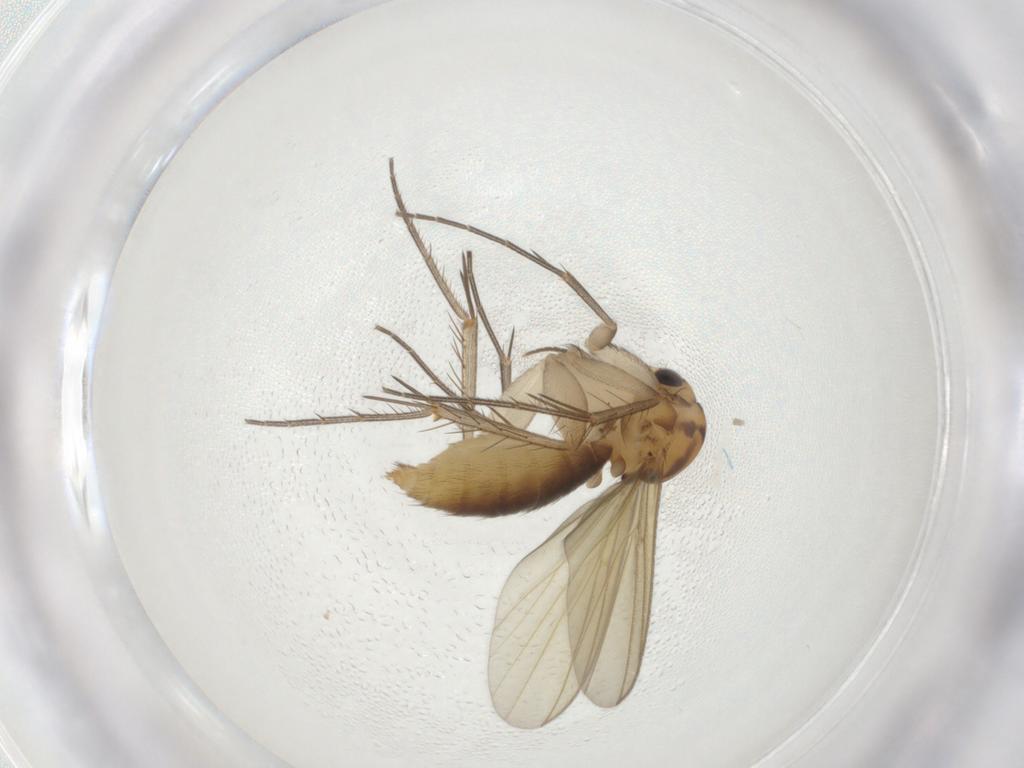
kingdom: Animalia
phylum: Arthropoda
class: Insecta
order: Diptera
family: Mycetophilidae
